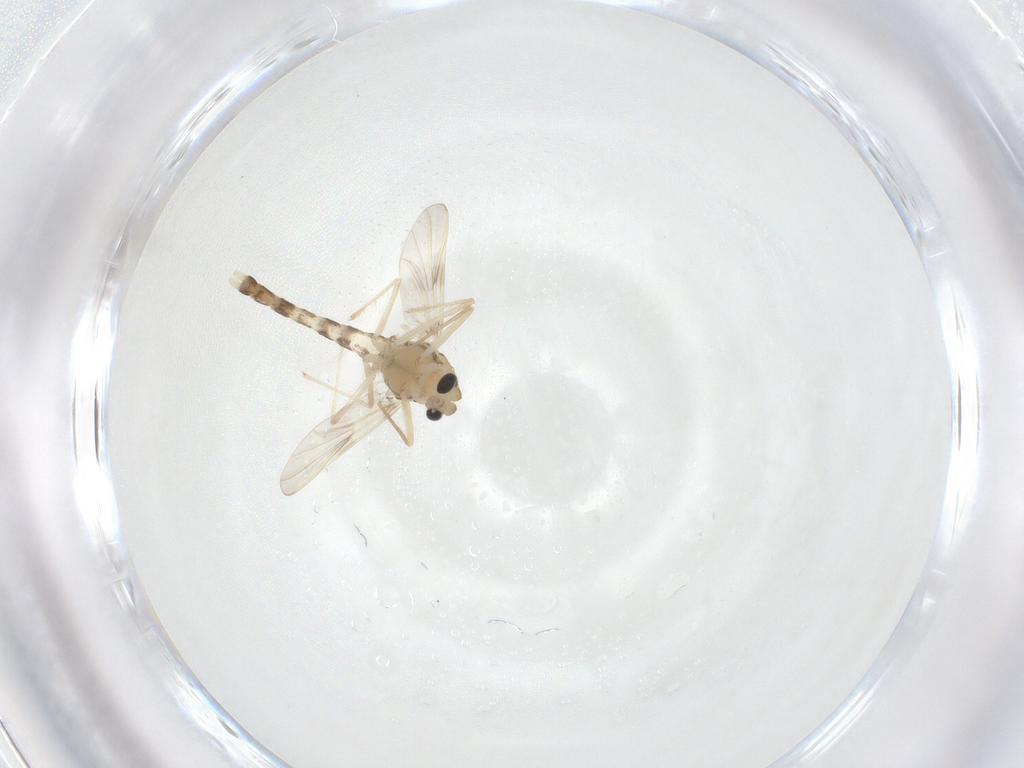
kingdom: Animalia
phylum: Arthropoda
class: Insecta
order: Diptera
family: Chironomidae
